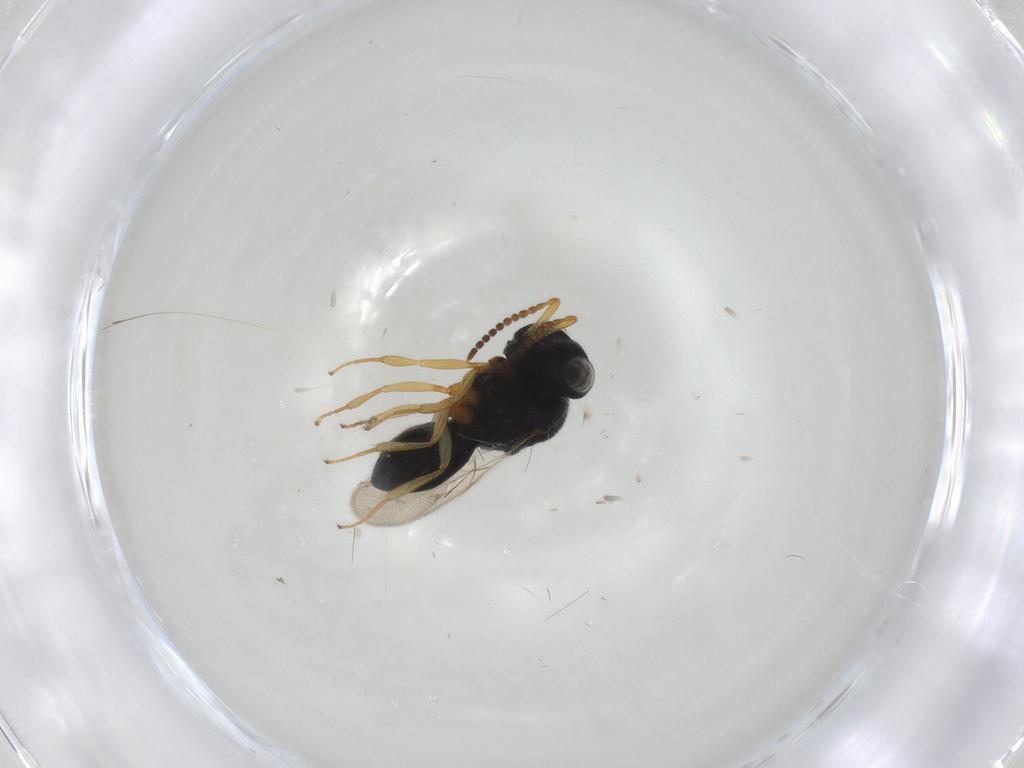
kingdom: Animalia
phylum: Arthropoda
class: Insecta
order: Hymenoptera
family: Scelionidae
